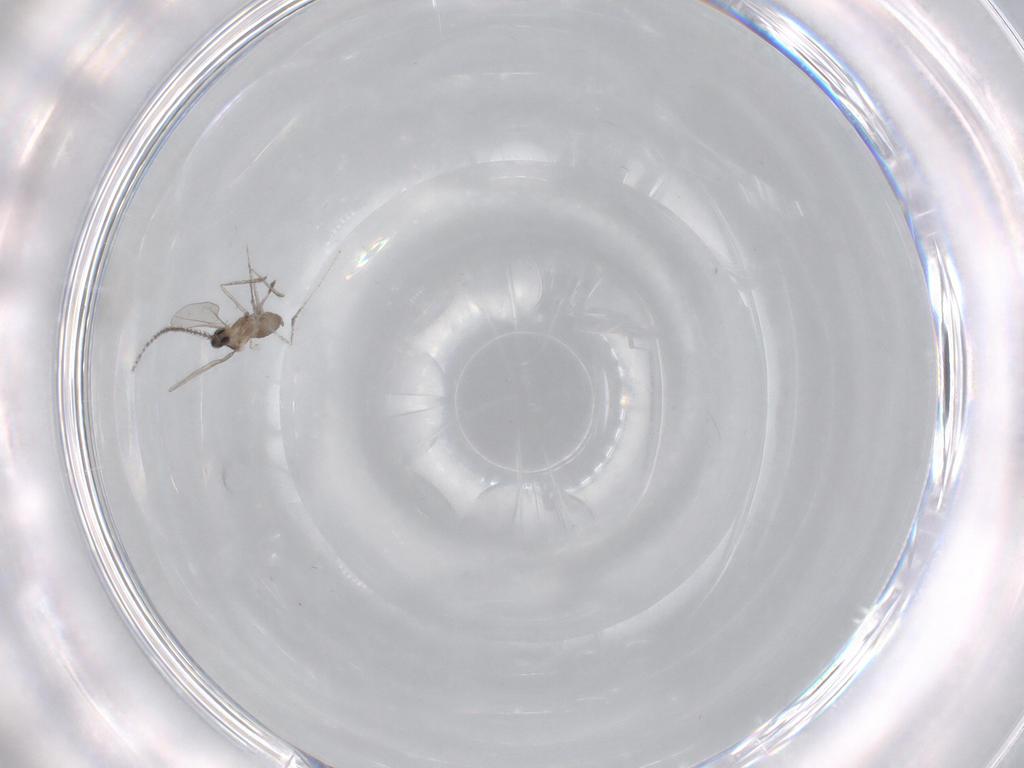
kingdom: Animalia
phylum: Arthropoda
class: Insecta
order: Diptera
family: Cecidomyiidae
